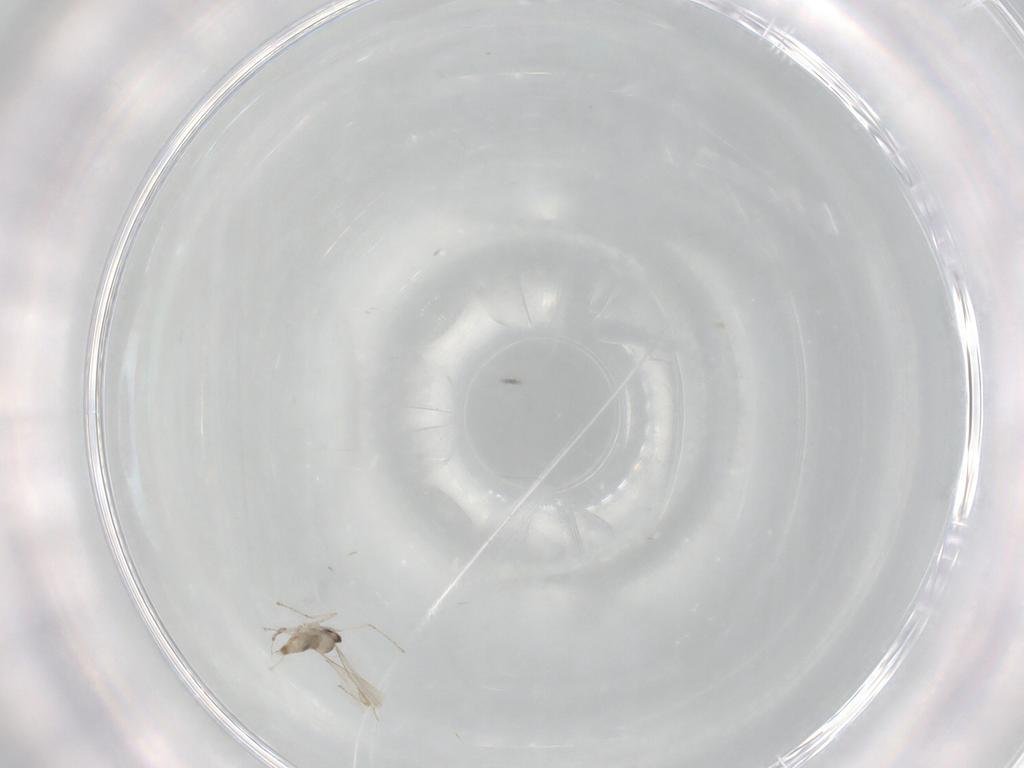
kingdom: Animalia
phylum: Arthropoda
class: Insecta
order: Diptera
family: Cecidomyiidae
